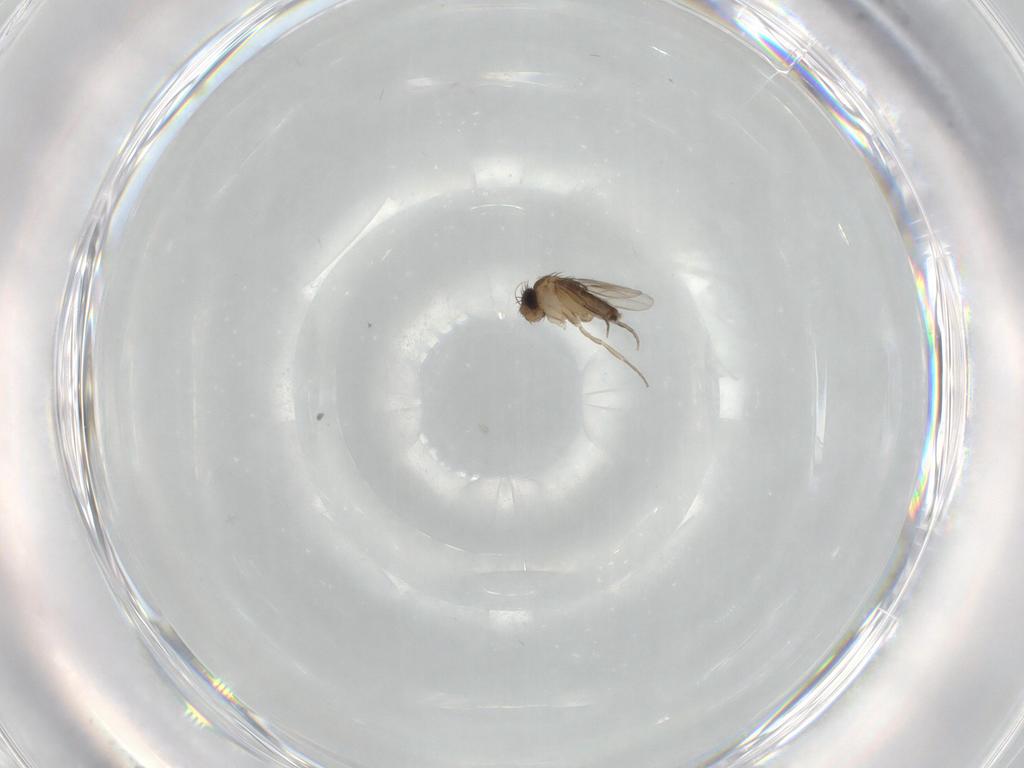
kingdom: Animalia
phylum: Arthropoda
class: Insecta
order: Diptera
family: Phoridae
